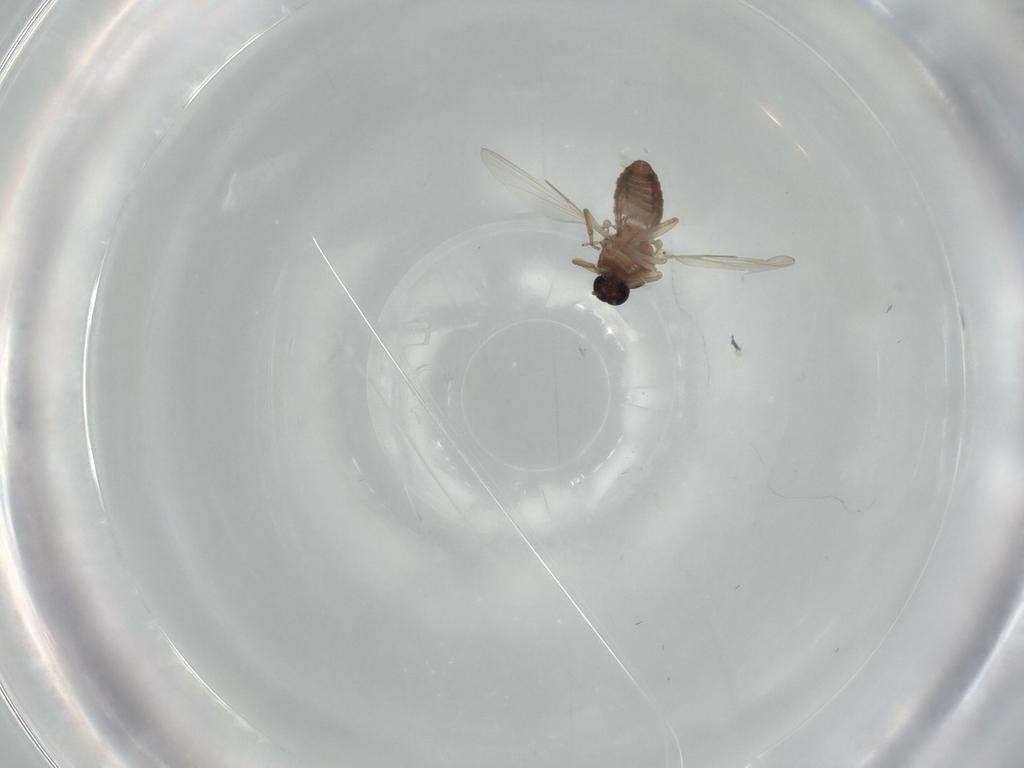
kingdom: Animalia
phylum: Arthropoda
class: Insecta
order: Diptera
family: Ceratopogonidae
